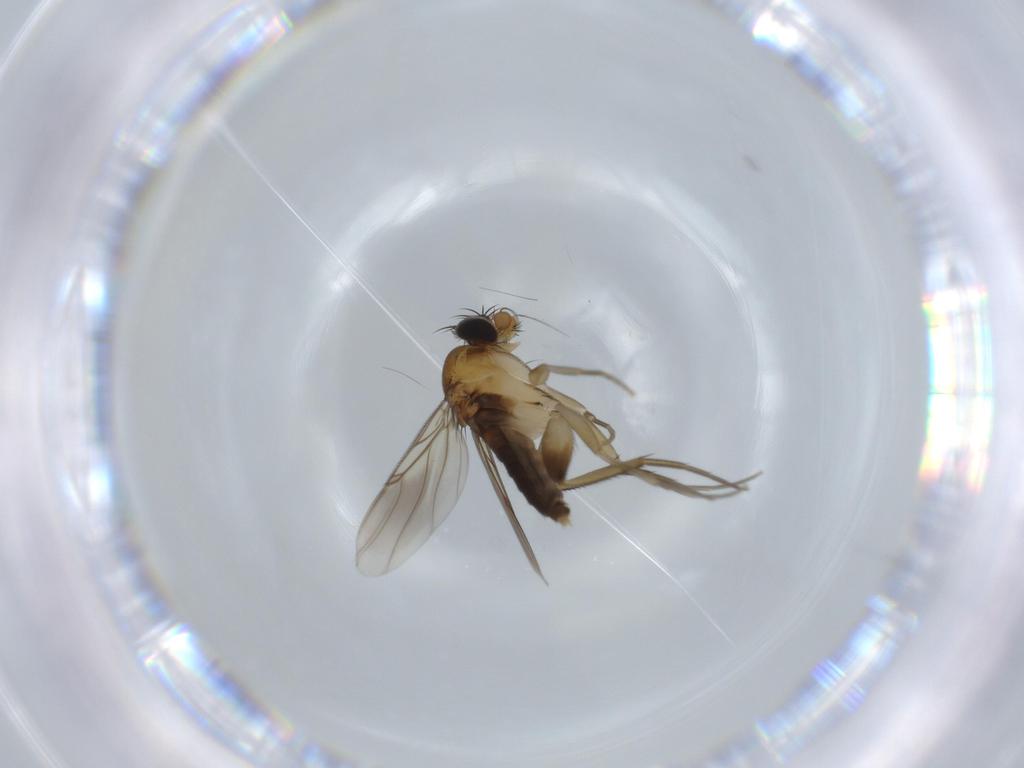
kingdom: Animalia
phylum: Arthropoda
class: Insecta
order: Diptera
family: Phoridae
